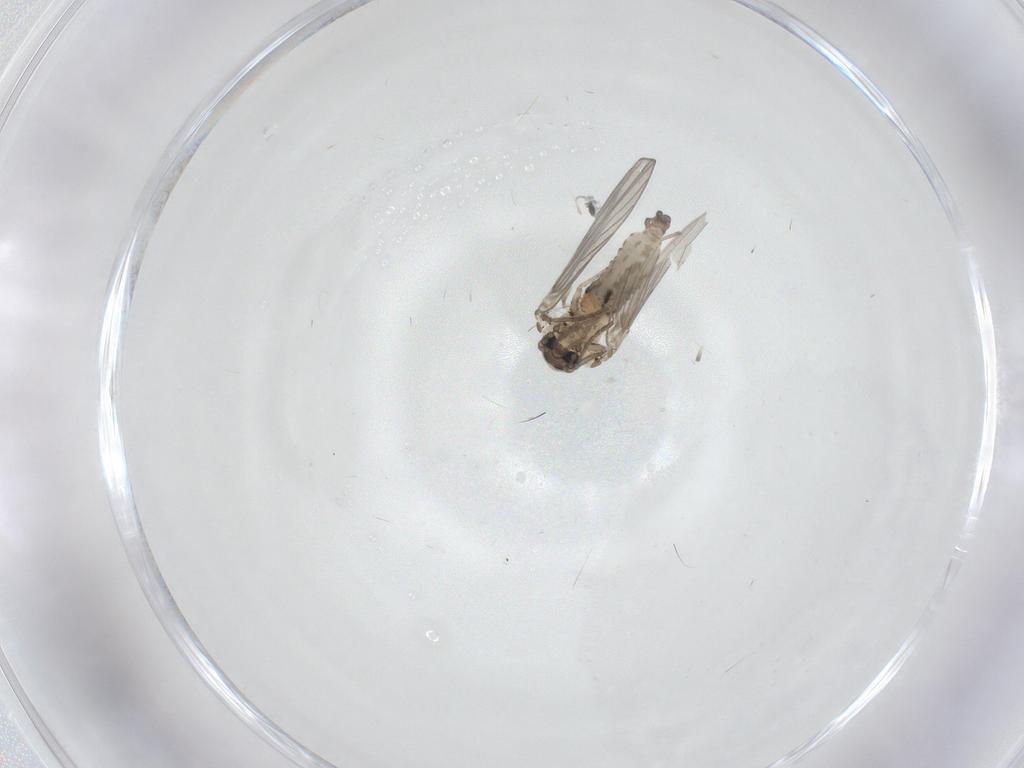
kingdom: Animalia
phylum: Arthropoda
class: Insecta
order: Diptera
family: Psychodidae
